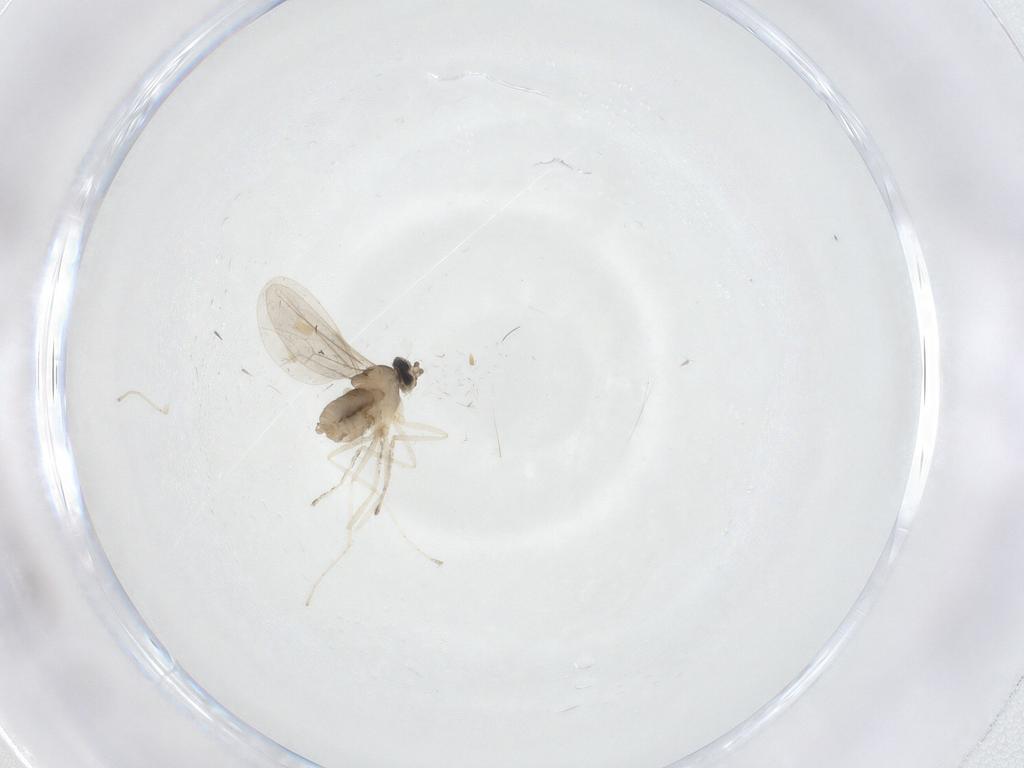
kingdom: Animalia
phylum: Arthropoda
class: Insecta
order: Diptera
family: Cecidomyiidae
